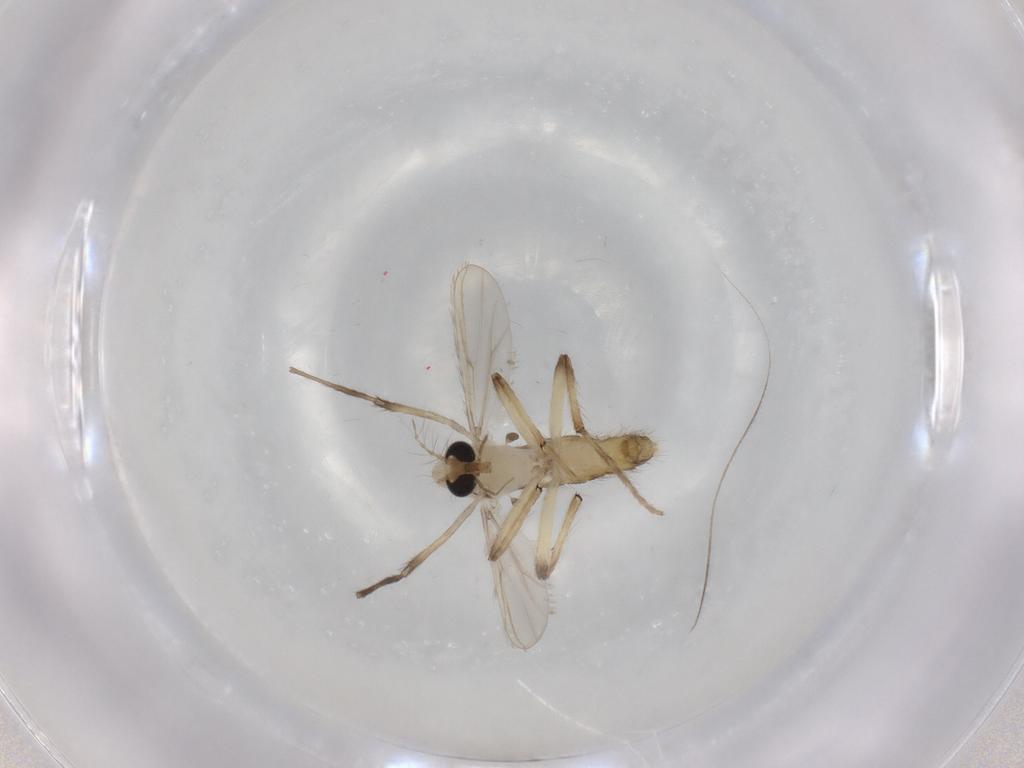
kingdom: Animalia
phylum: Arthropoda
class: Insecta
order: Diptera
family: Chironomidae
